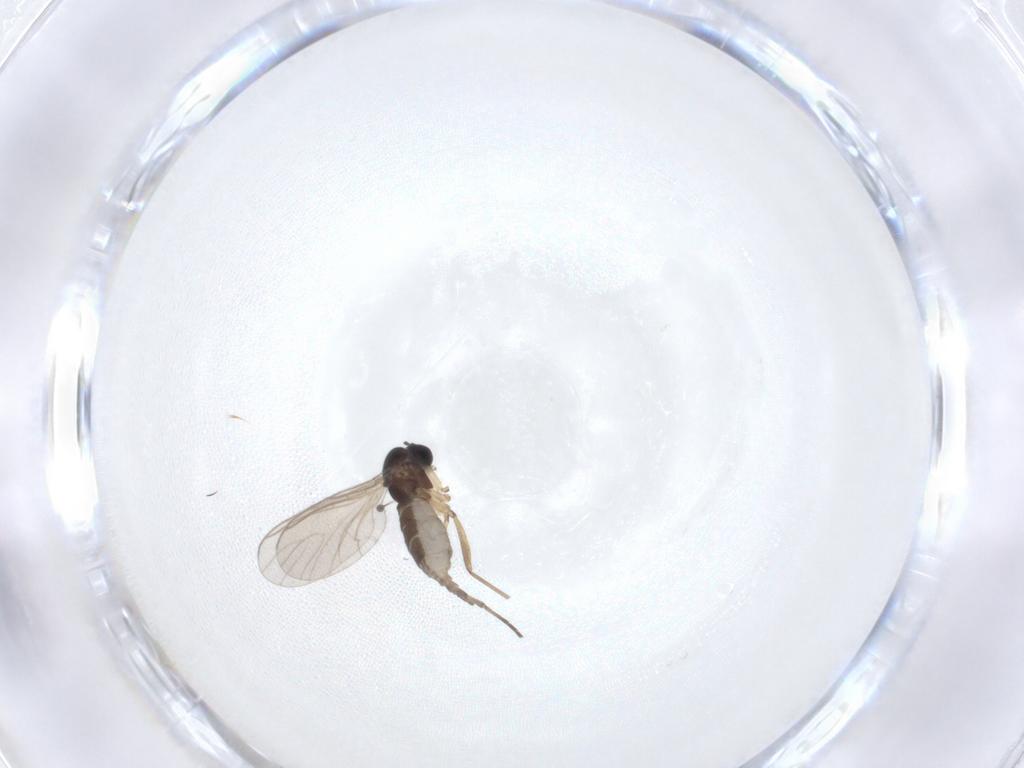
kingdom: Animalia
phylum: Arthropoda
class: Insecta
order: Diptera
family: Sciaridae
